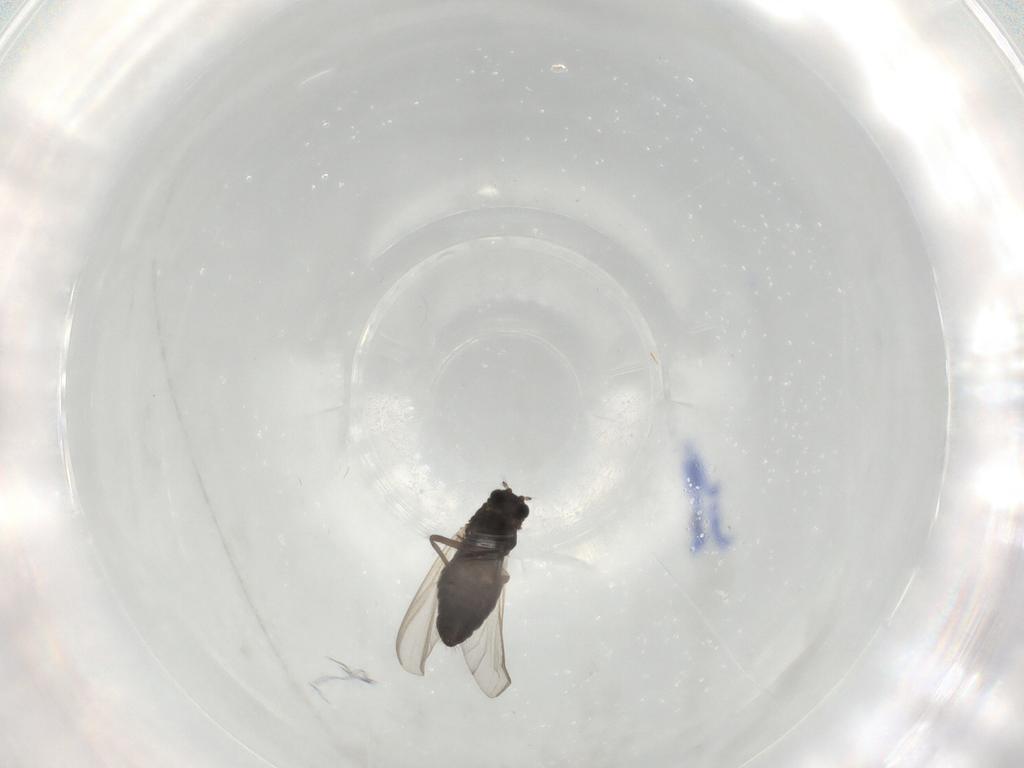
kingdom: Animalia
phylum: Arthropoda
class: Insecta
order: Diptera
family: Chironomidae
